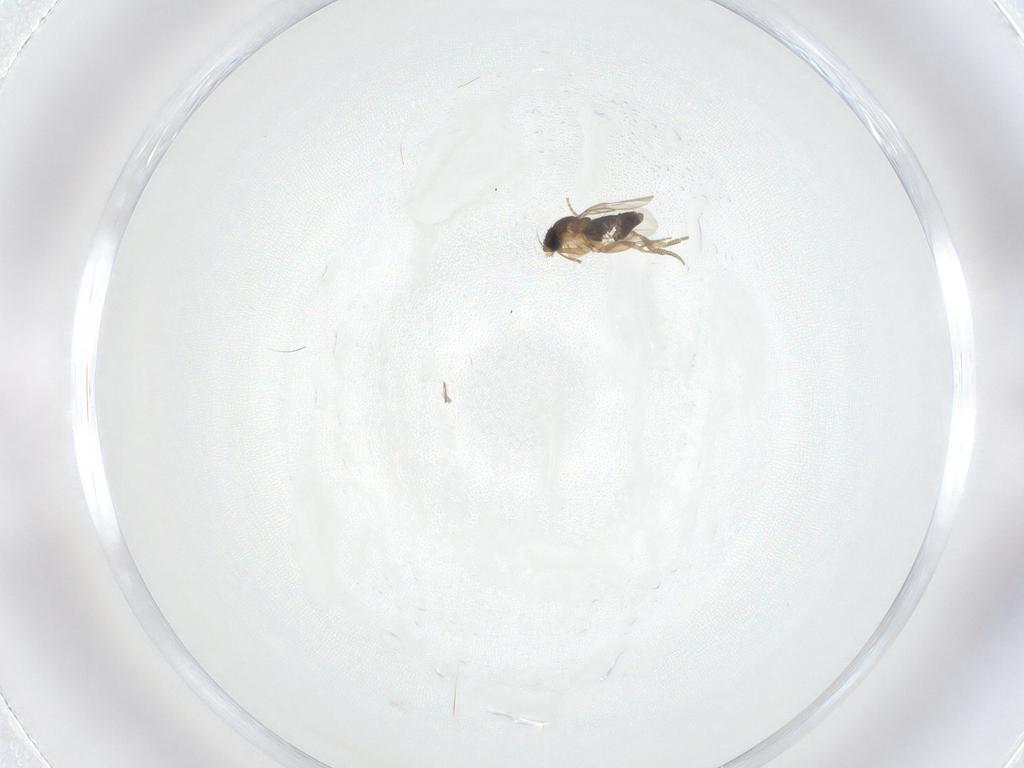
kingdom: Animalia
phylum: Arthropoda
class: Insecta
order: Diptera
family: Phoridae
